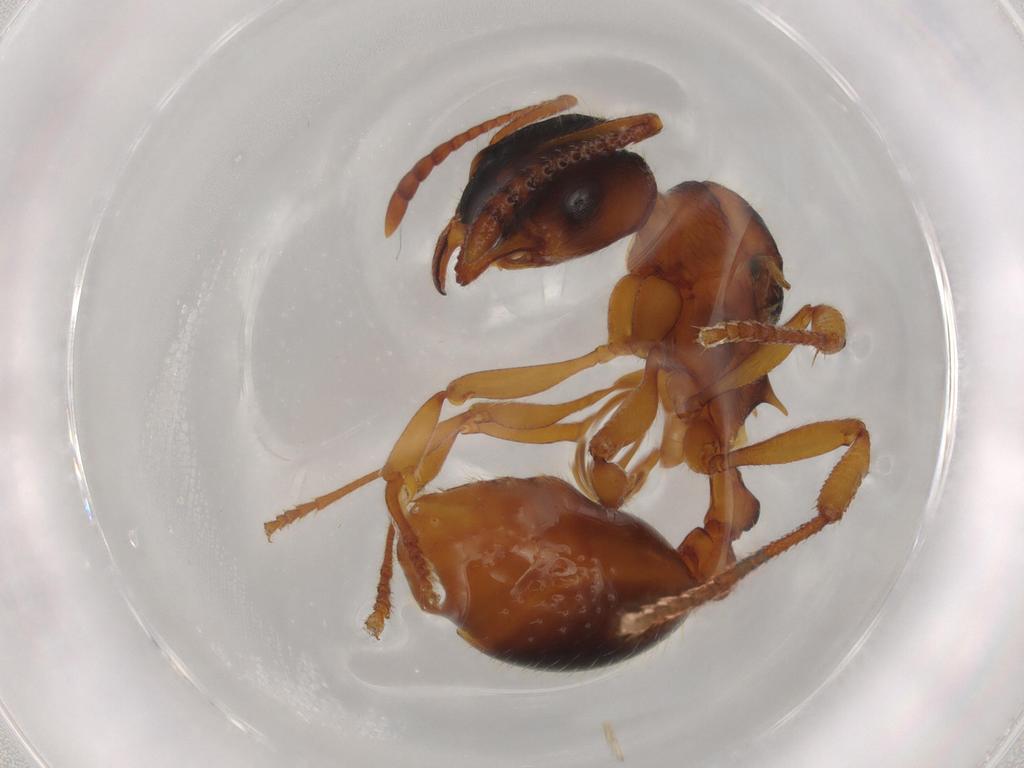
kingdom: Animalia
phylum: Arthropoda
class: Insecta
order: Hymenoptera
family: Formicidae
